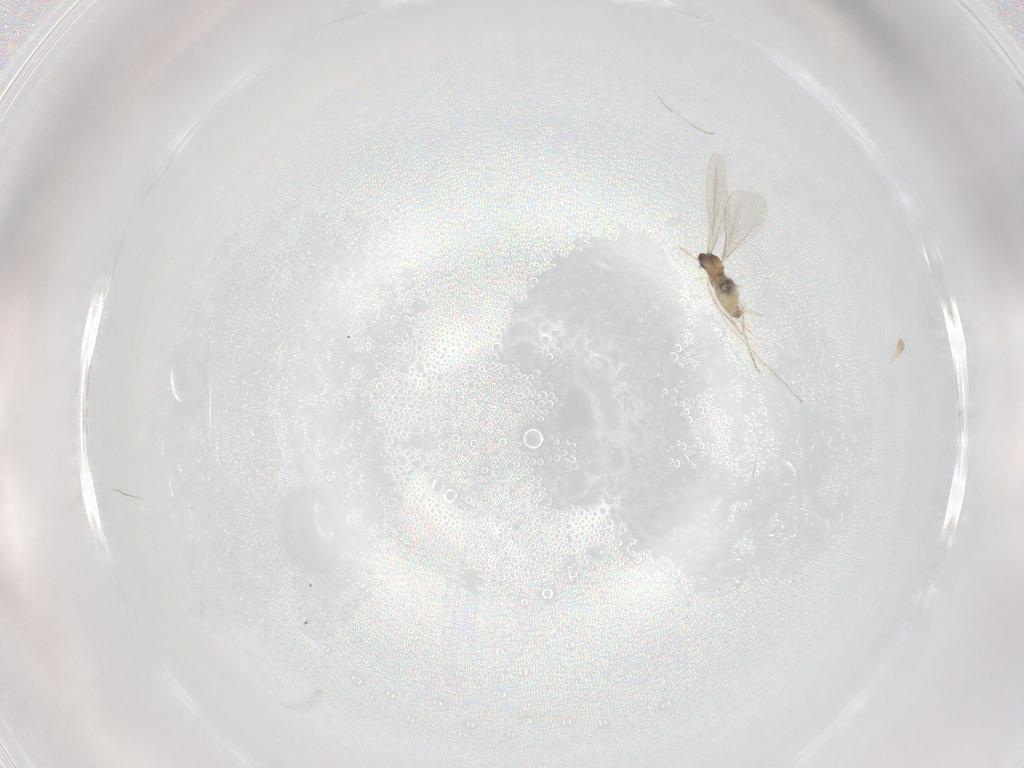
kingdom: Animalia
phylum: Arthropoda
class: Insecta
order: Diptera
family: Cecidomyiidae
